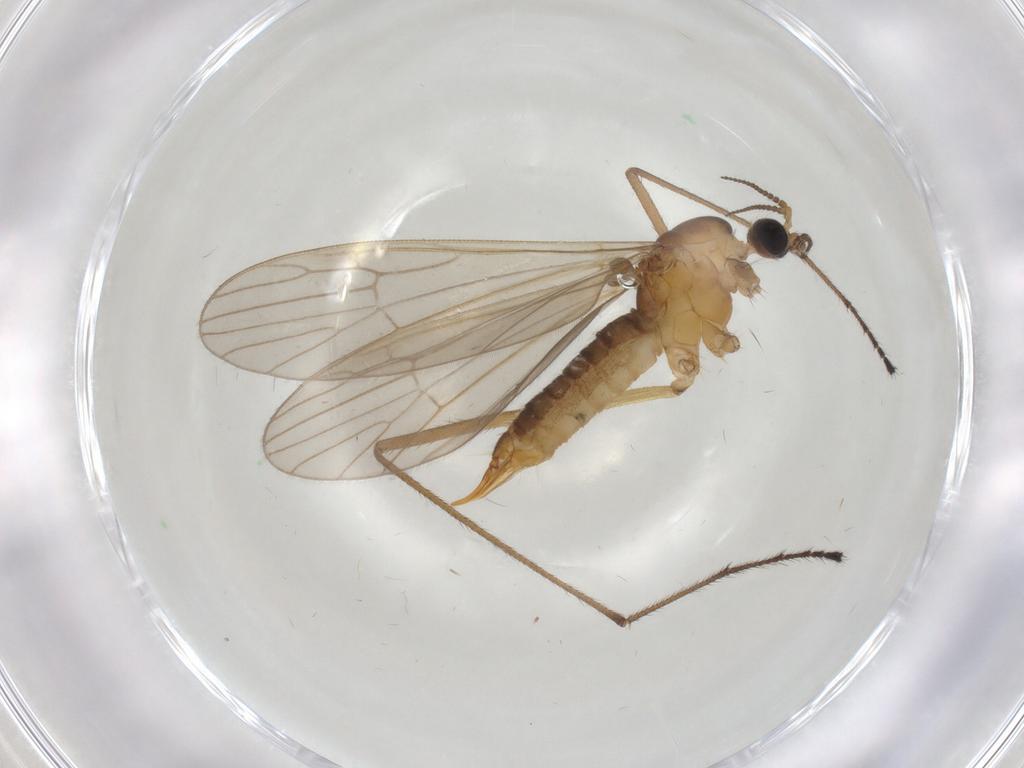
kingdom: Animalia
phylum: Arthropoda
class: Insecta
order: Diptera
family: Limoniidae
